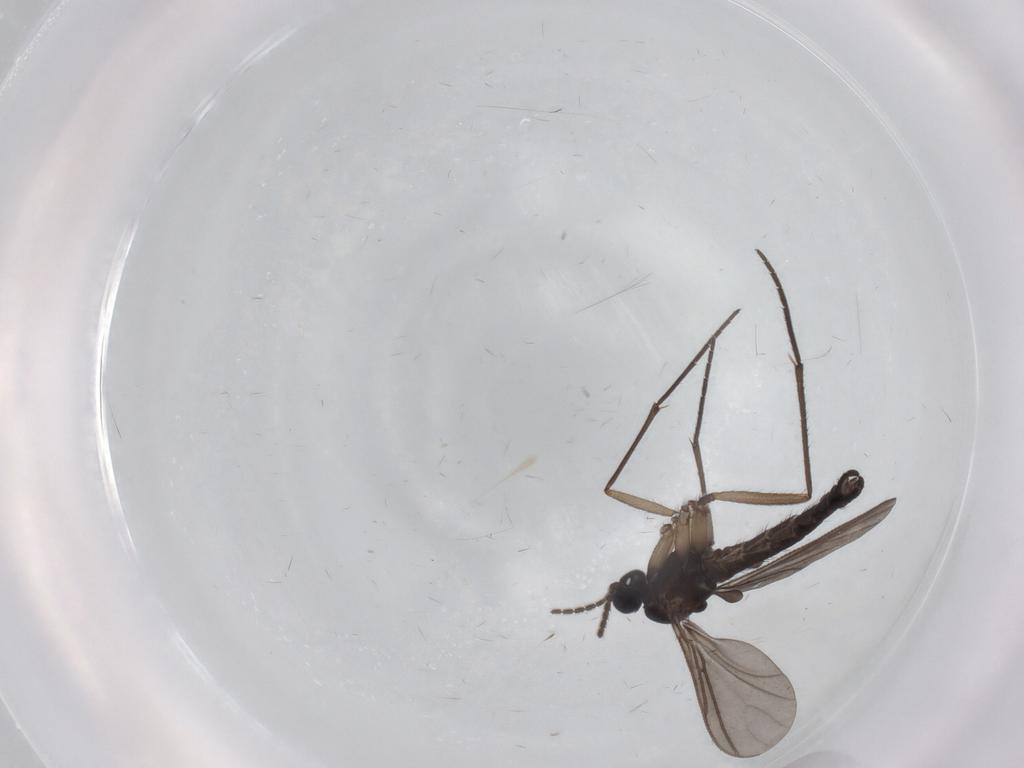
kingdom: Animalia
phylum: Arthropoda
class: Insecta
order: Diptera
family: Sciaridae
